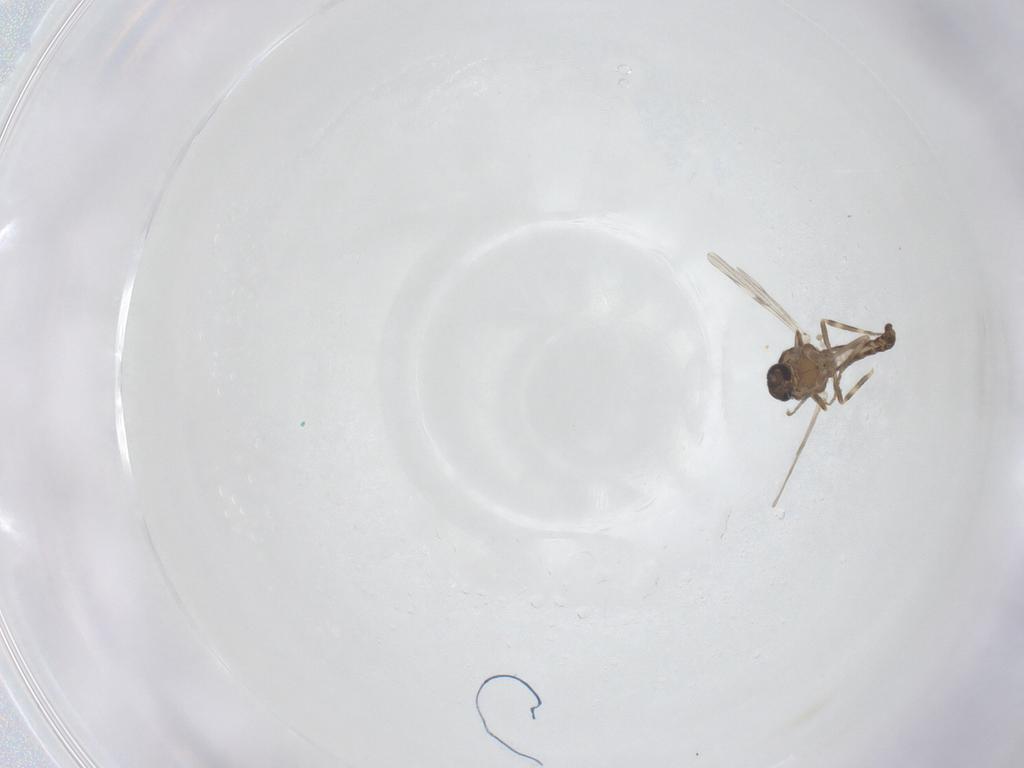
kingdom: Animalia
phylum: Arthropoda
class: Insecta
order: Diptera
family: Ceratopogonidae
